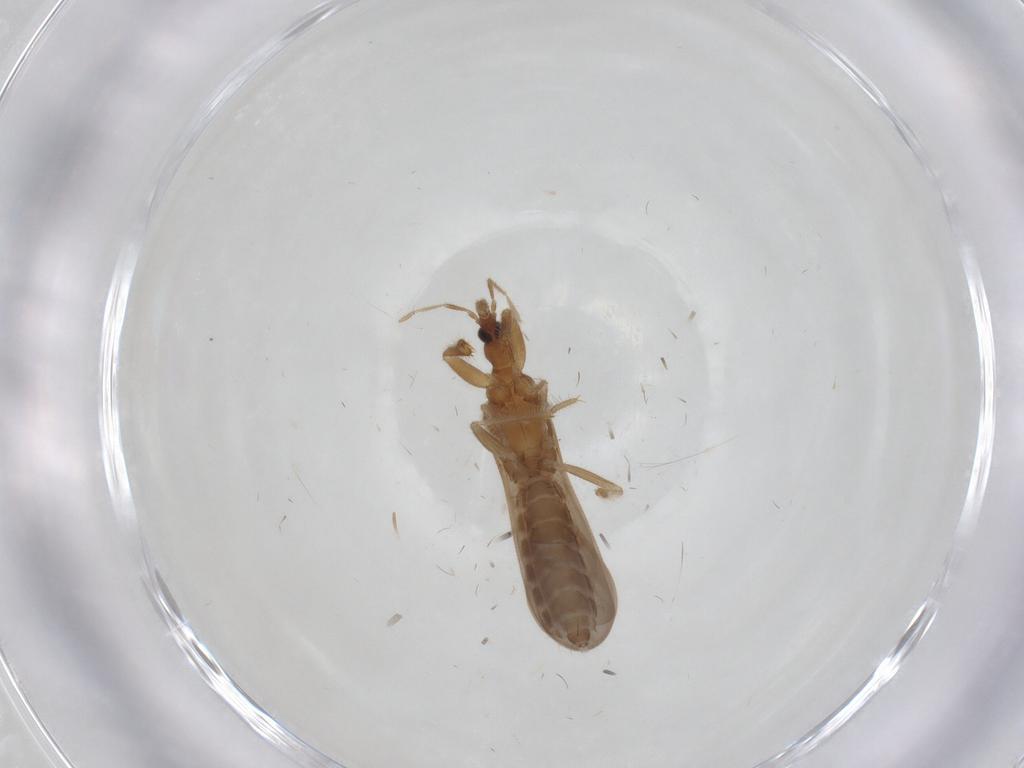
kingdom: Animalia
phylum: Arthropoda
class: Insecta
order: Hemiptera
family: Enicocephalidae
